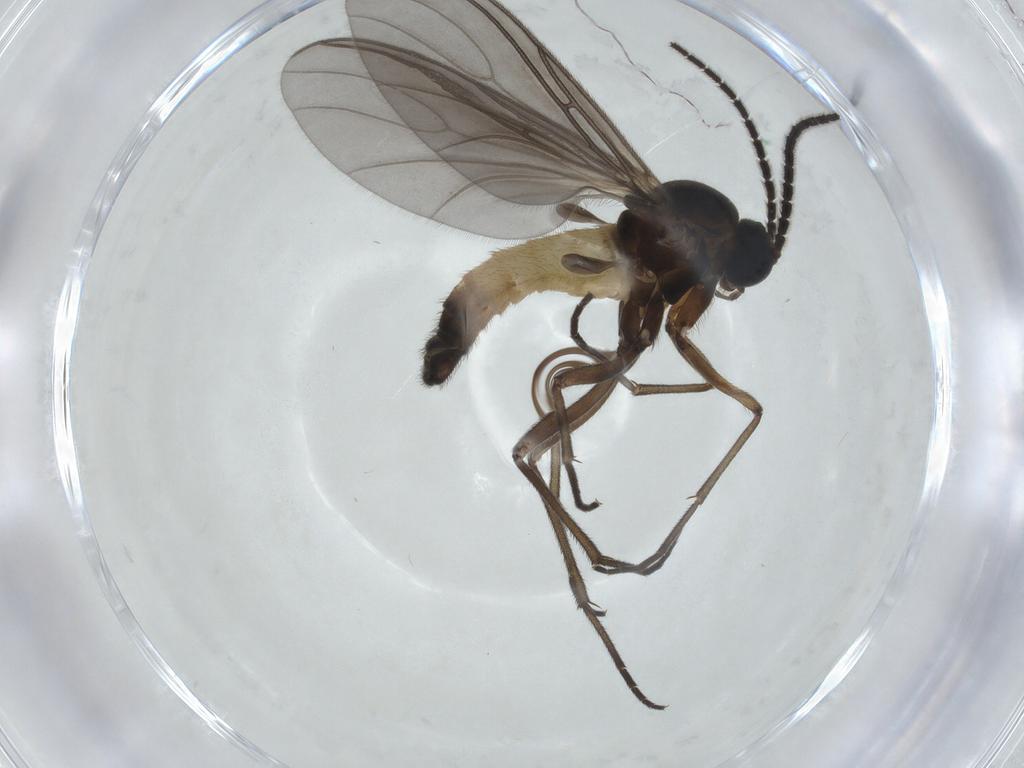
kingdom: Animalia
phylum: Arthropoda
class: Insecta
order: Diptera
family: Sciaridae
